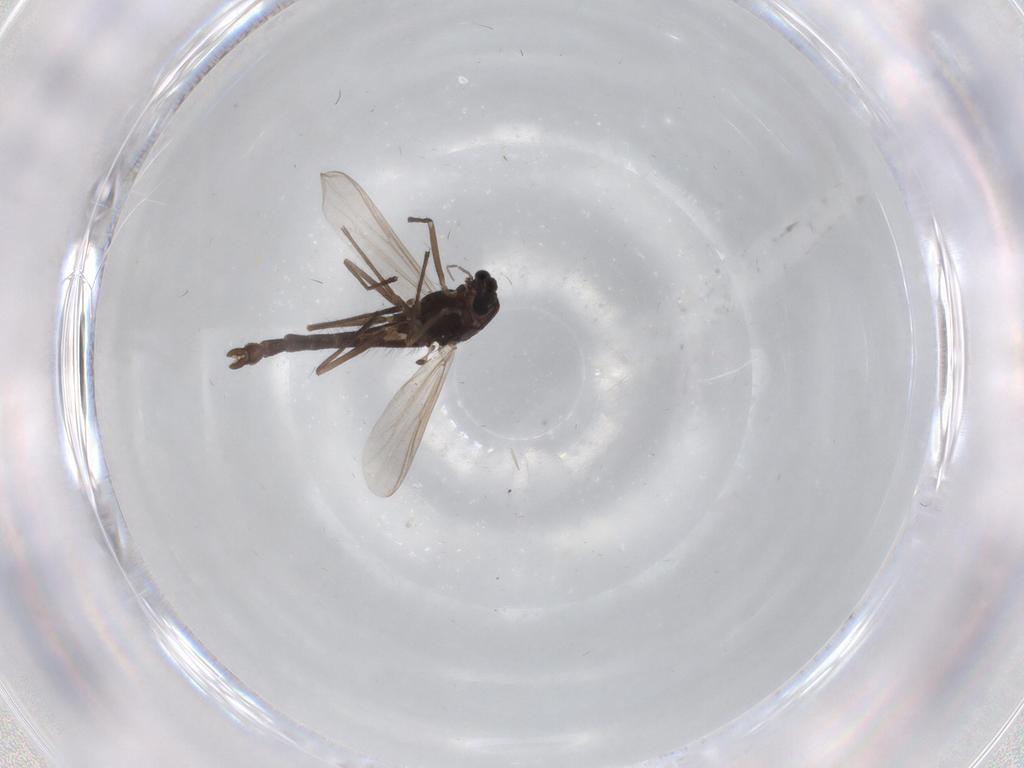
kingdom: Animalia
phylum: Arthropoda
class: Insecta
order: Diptera
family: Chironomidae
